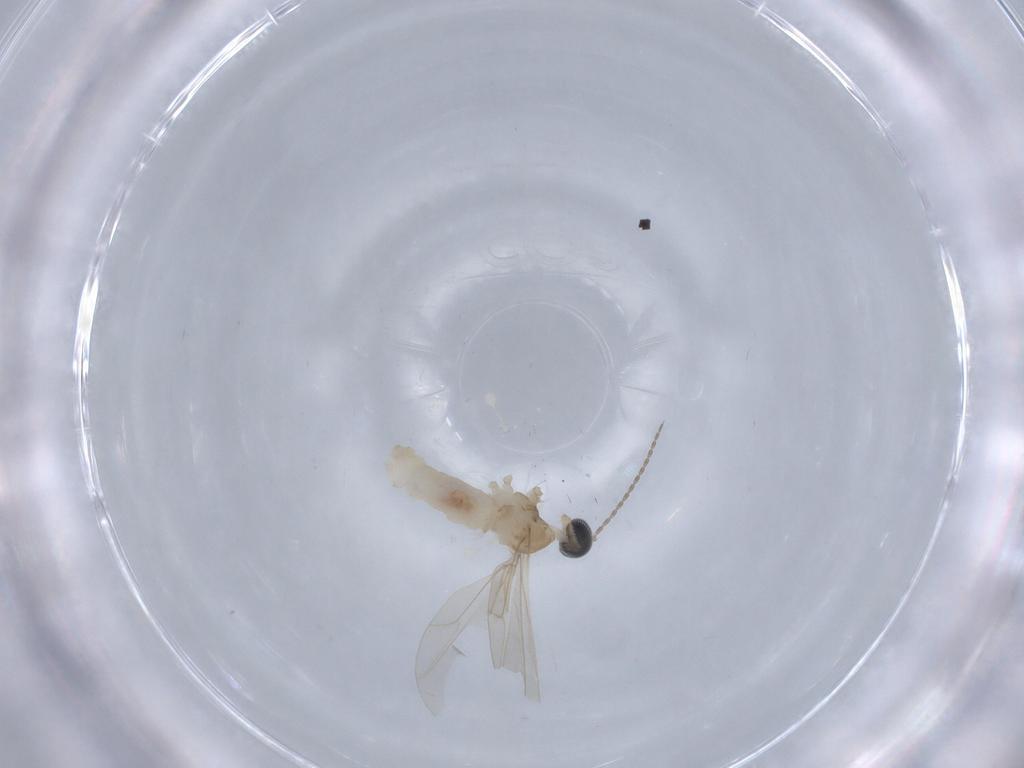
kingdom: Animalia
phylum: Arthropoda
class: Insecta
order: Diptera
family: Cecidomyiidae
